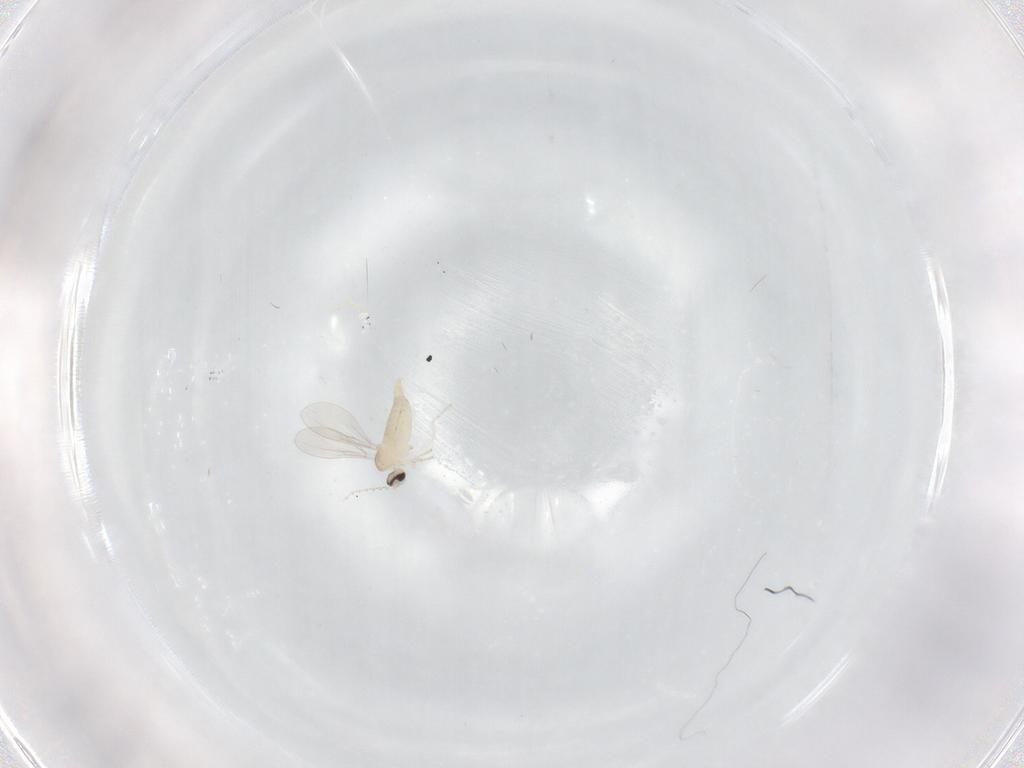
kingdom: Animalia
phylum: Arthropoda
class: Insecta
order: Diptera
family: Cecidomyiidae
